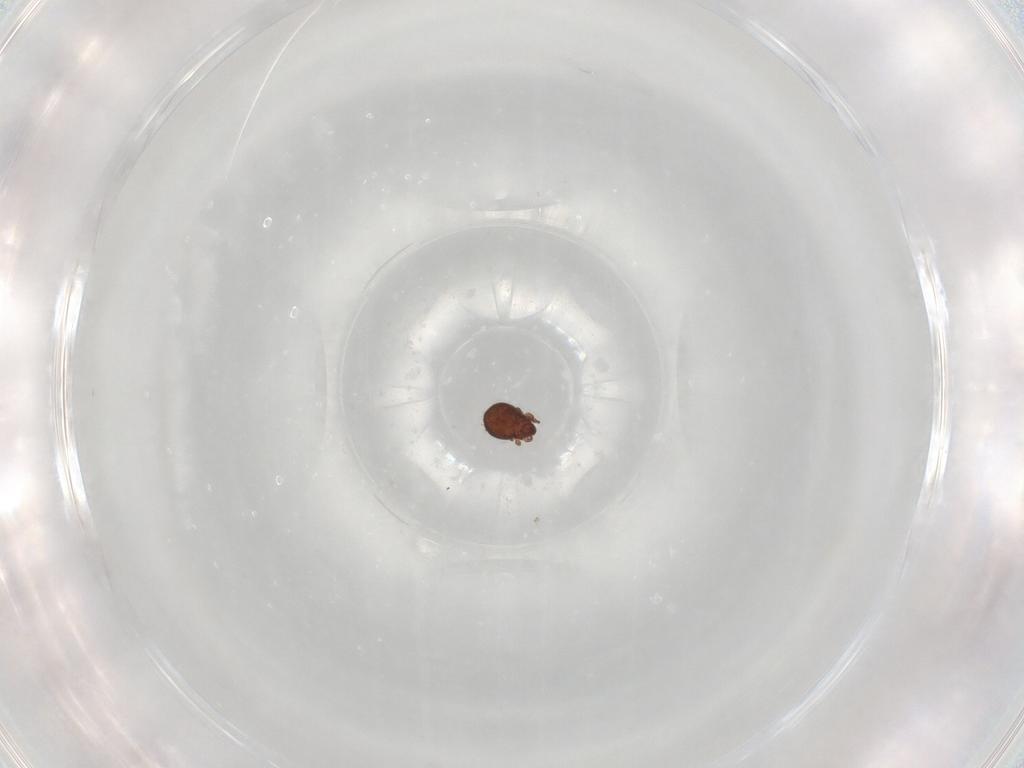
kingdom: Animalia
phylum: Arthropoda
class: Arachnida
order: Sarcoptiformes
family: Scheloribatidae
